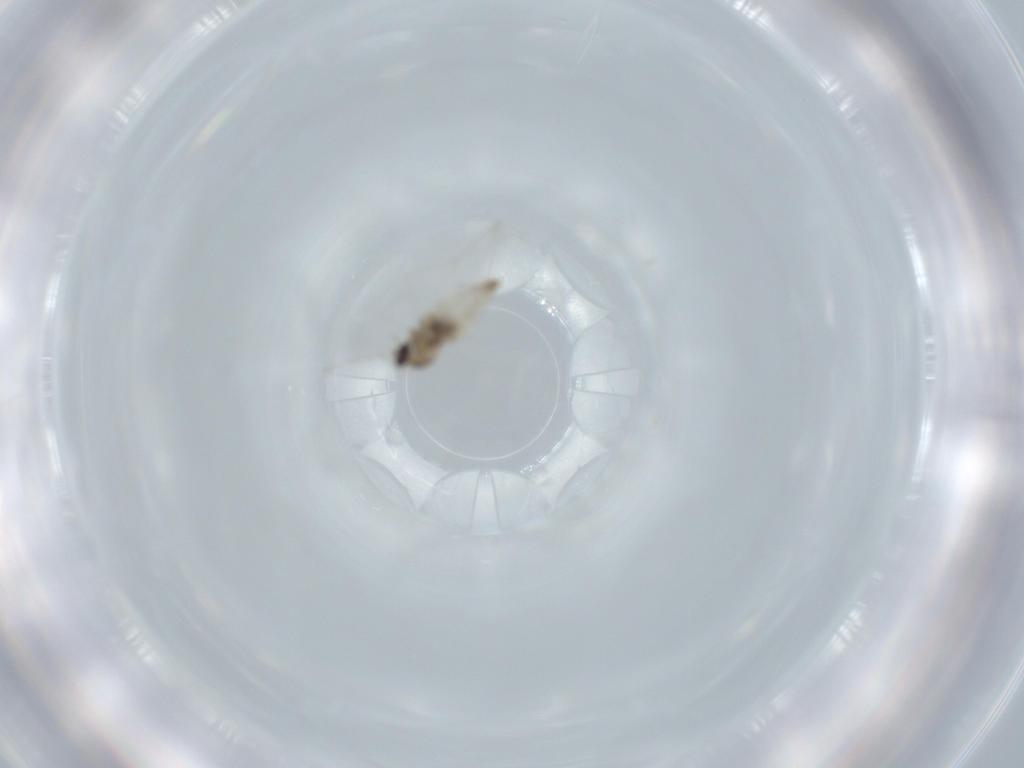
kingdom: Animalia
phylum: Arthropoda
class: Insecta
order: Diptera
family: Cecidomyiidae
